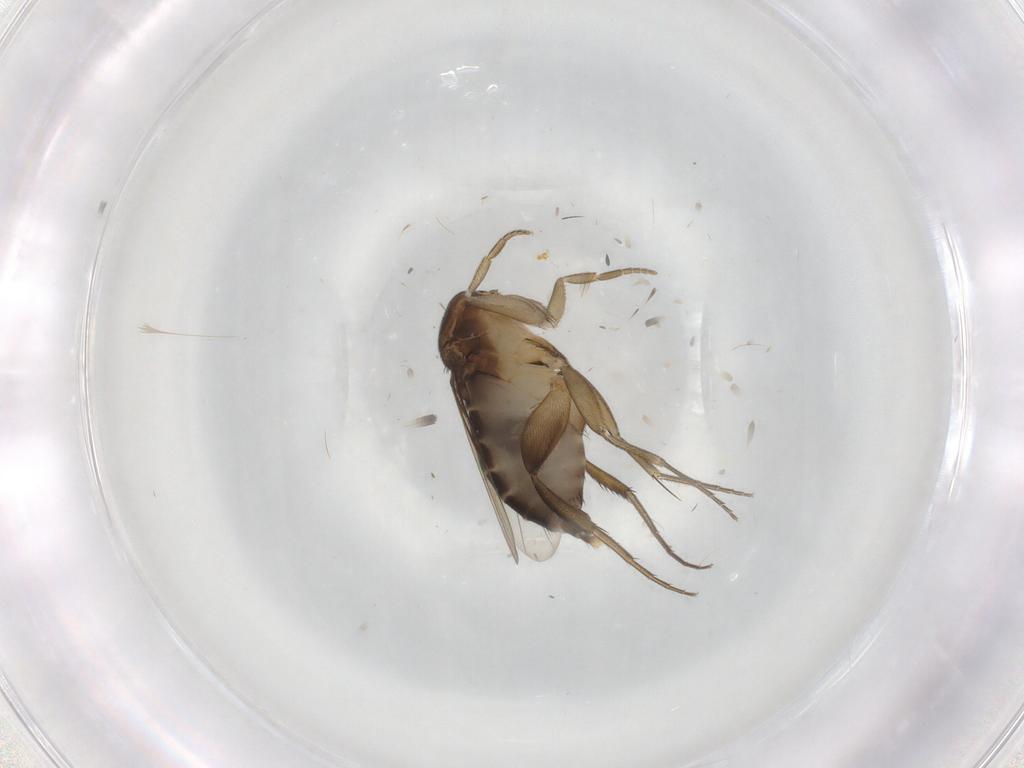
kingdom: Animalia
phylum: Arthropoda
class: Insecta
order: Diptera
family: Phoridae
